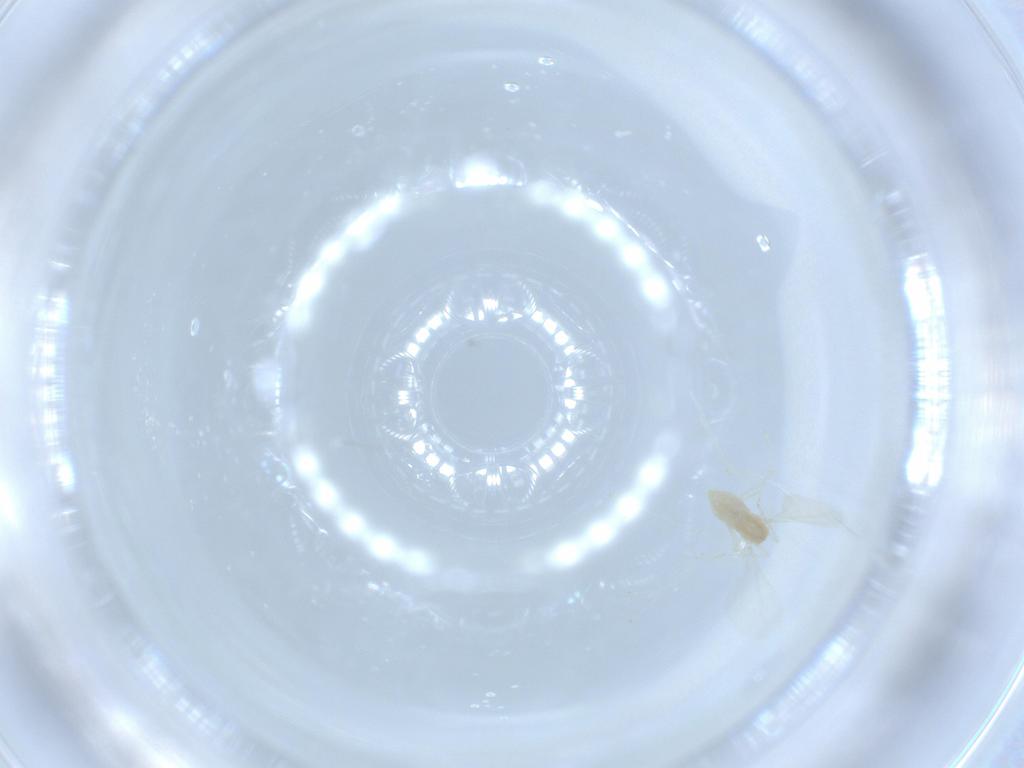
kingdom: Animalia
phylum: Arthropoda
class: Insecta
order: Diptera
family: Cecidomyiidae
